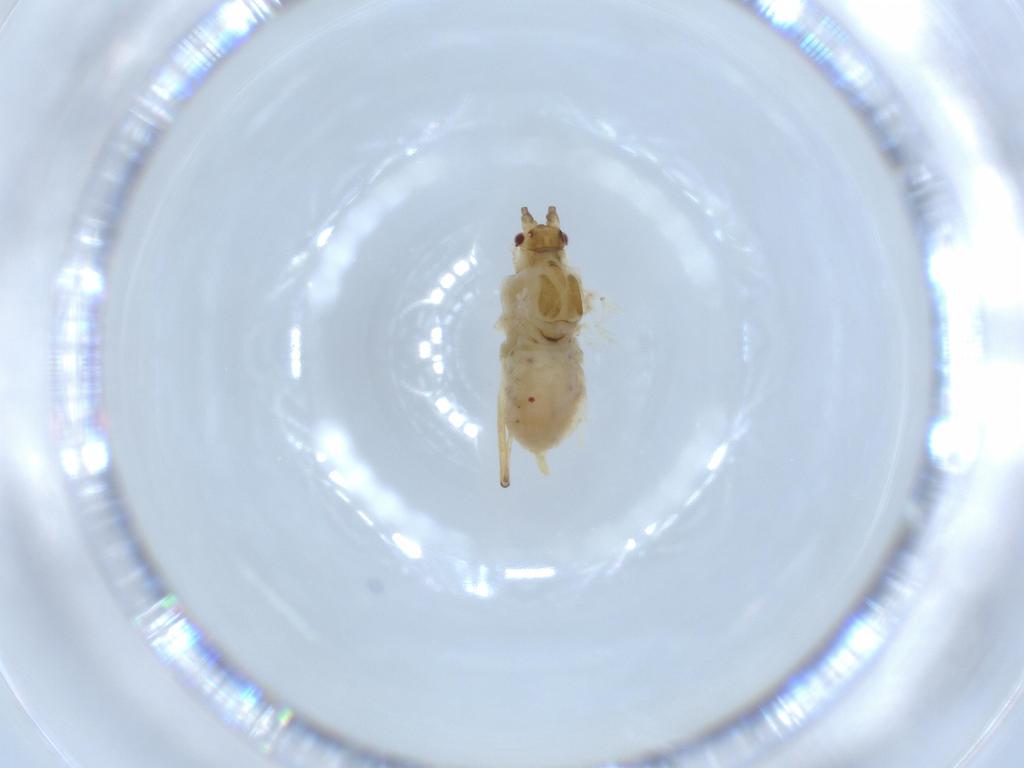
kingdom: Animalia
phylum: Arthropoda
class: Insecta
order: Hemiptera
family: Aphididae
